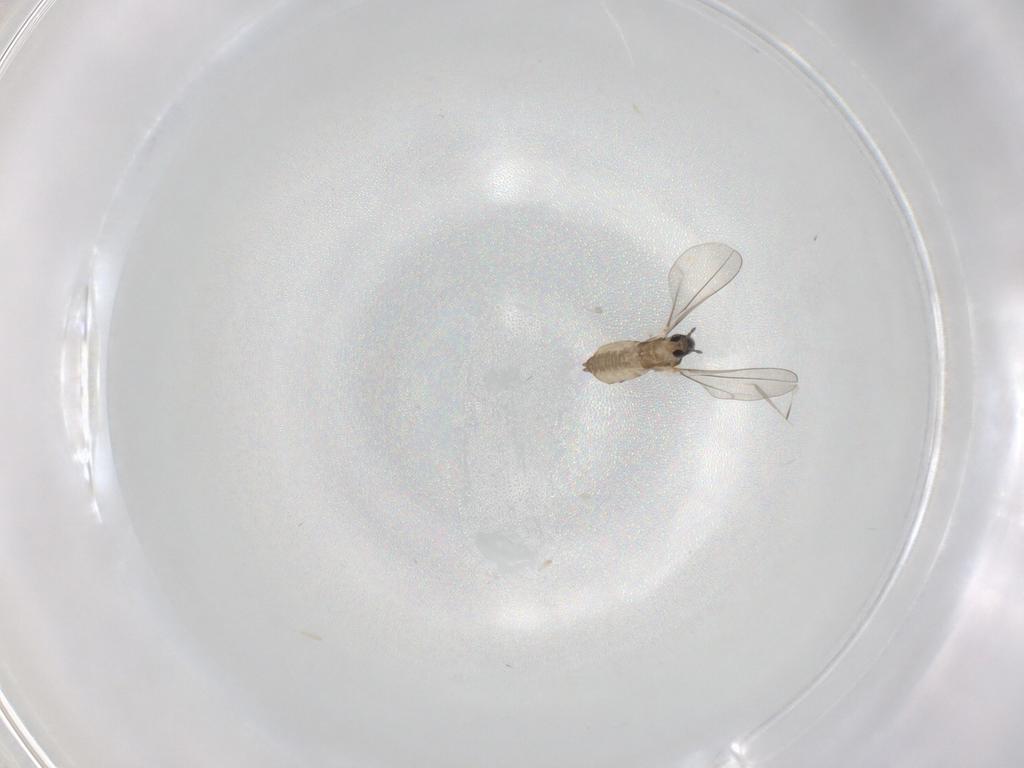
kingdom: Animalia
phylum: Arthropoda
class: Insecta
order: Diptera
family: Cecidomyiidae
